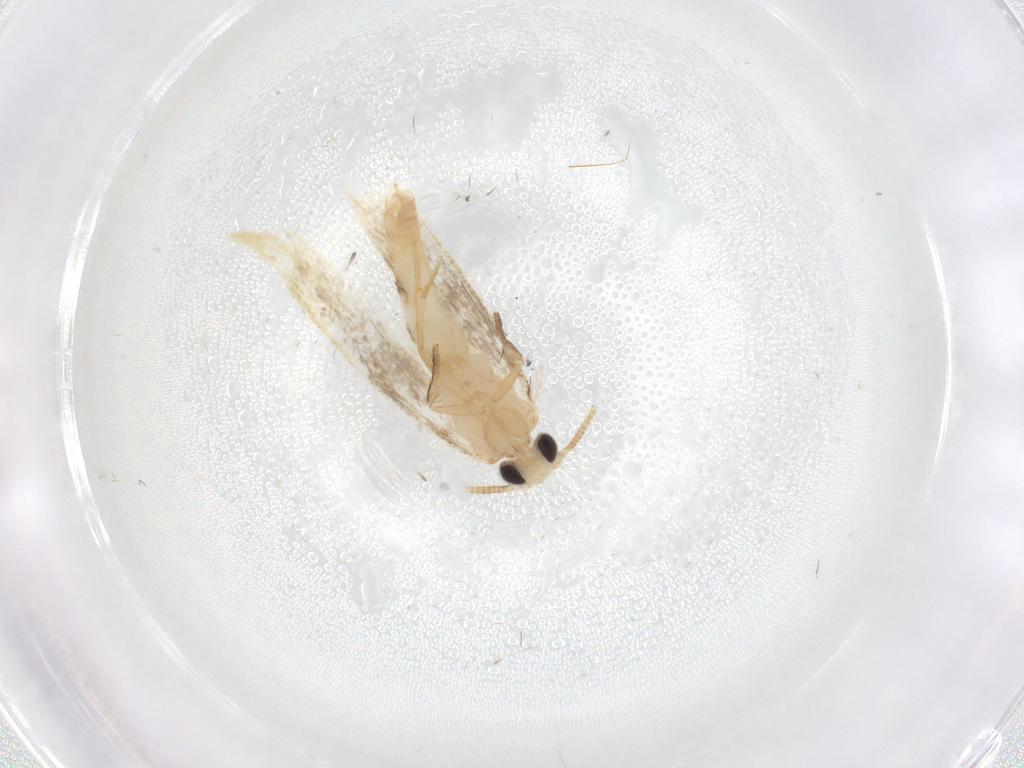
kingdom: Animalia
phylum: Arthropoda
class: Insecta
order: Lepidoptera
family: Tineidae
